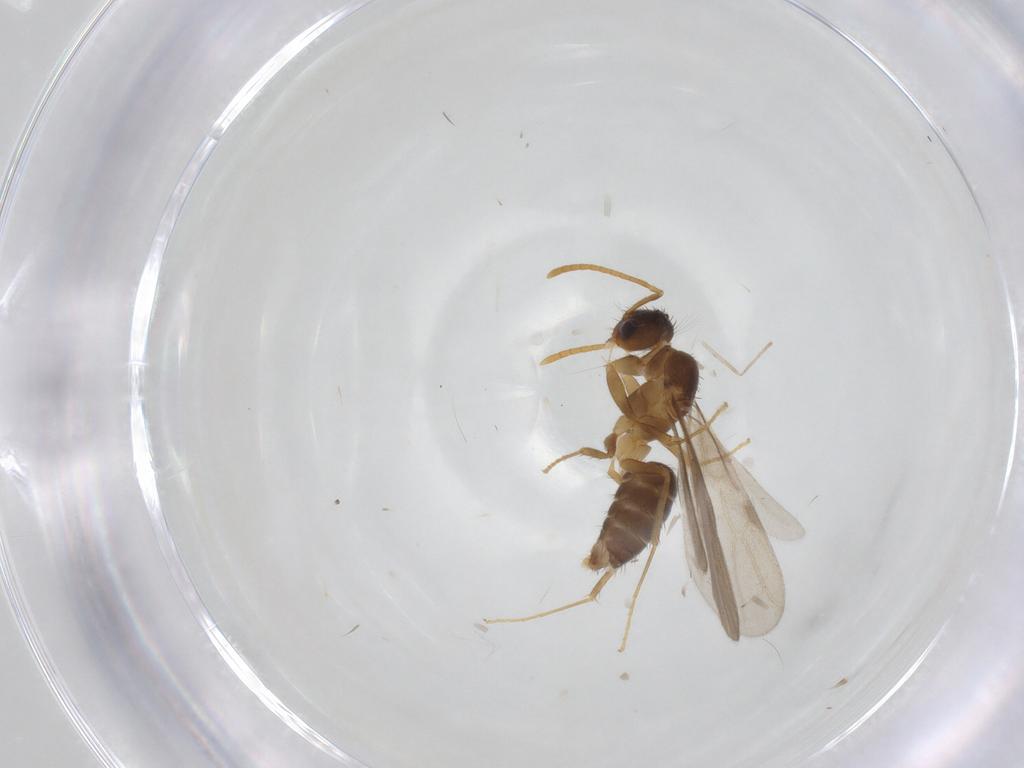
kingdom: Animalia
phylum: Arthropoda
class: Insecta
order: Hymenoptera
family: Formicidae
